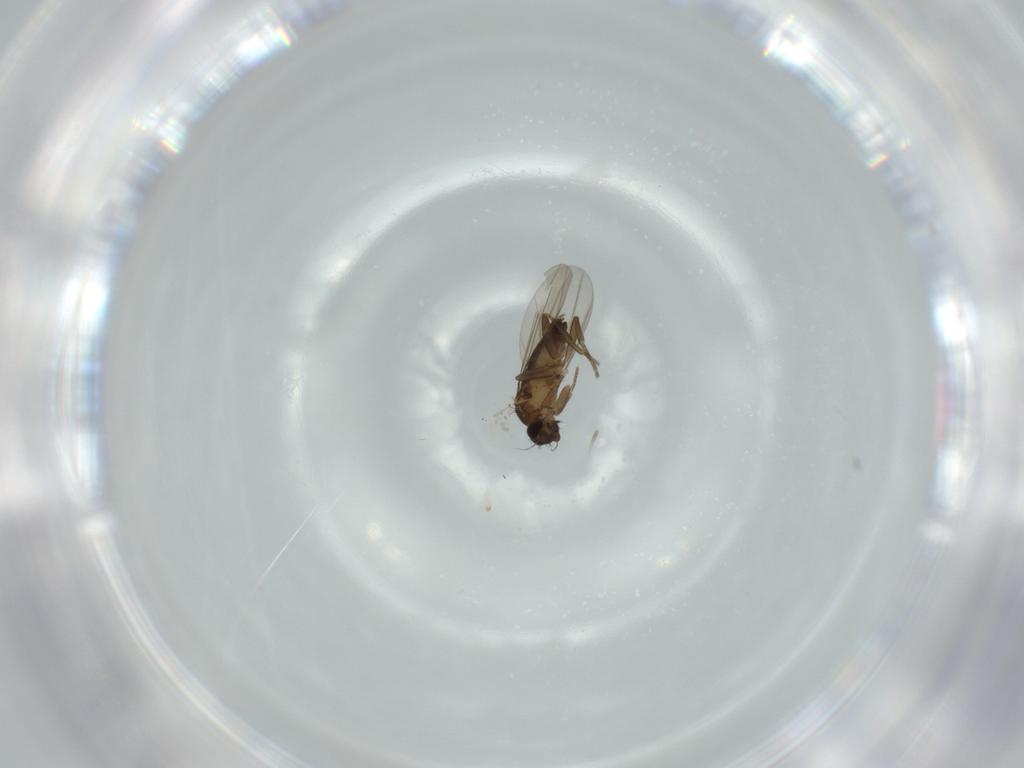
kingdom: Animalia
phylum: Arthropoda
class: Insecta
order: Diptera
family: Phoridae
